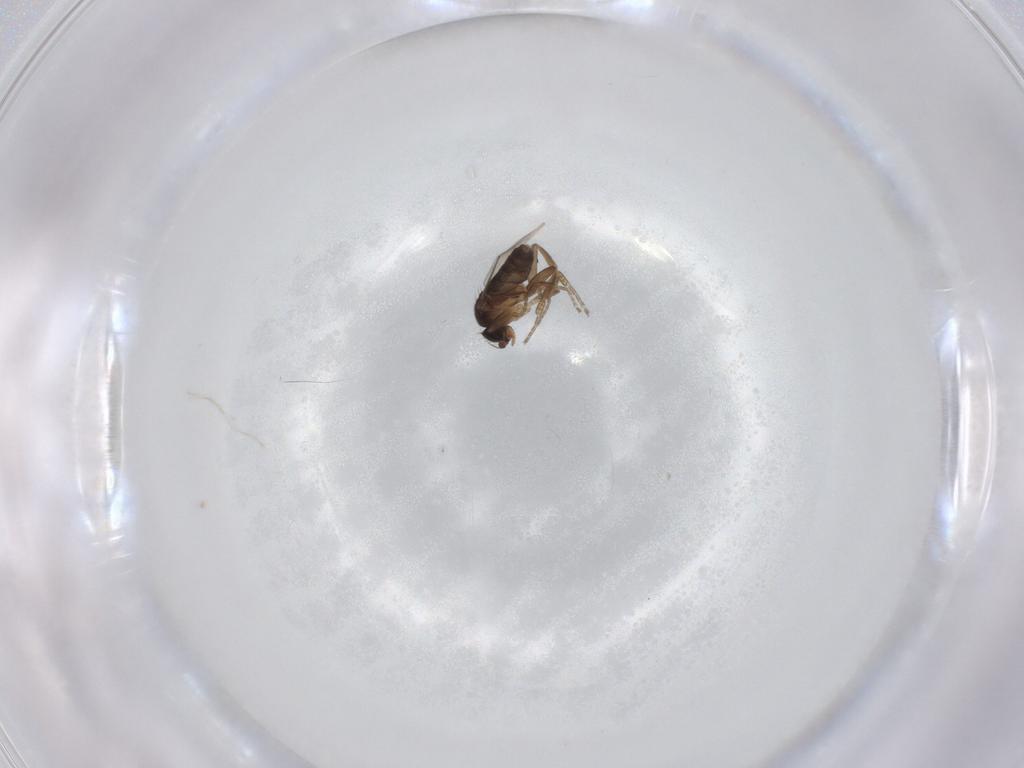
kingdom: Animalia
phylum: Arthropoda
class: Insecta
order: Diptera
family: Phoridae
